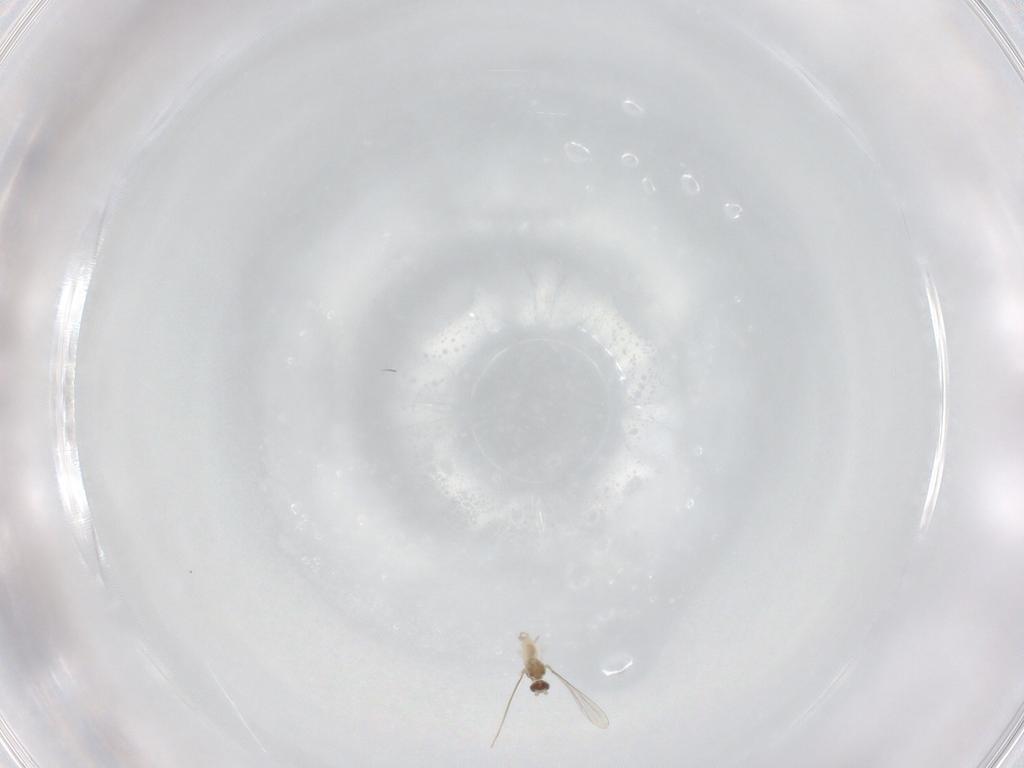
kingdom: Animalia
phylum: Arthropoda
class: Insecta
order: Diptera
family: Cecidomyiidae
